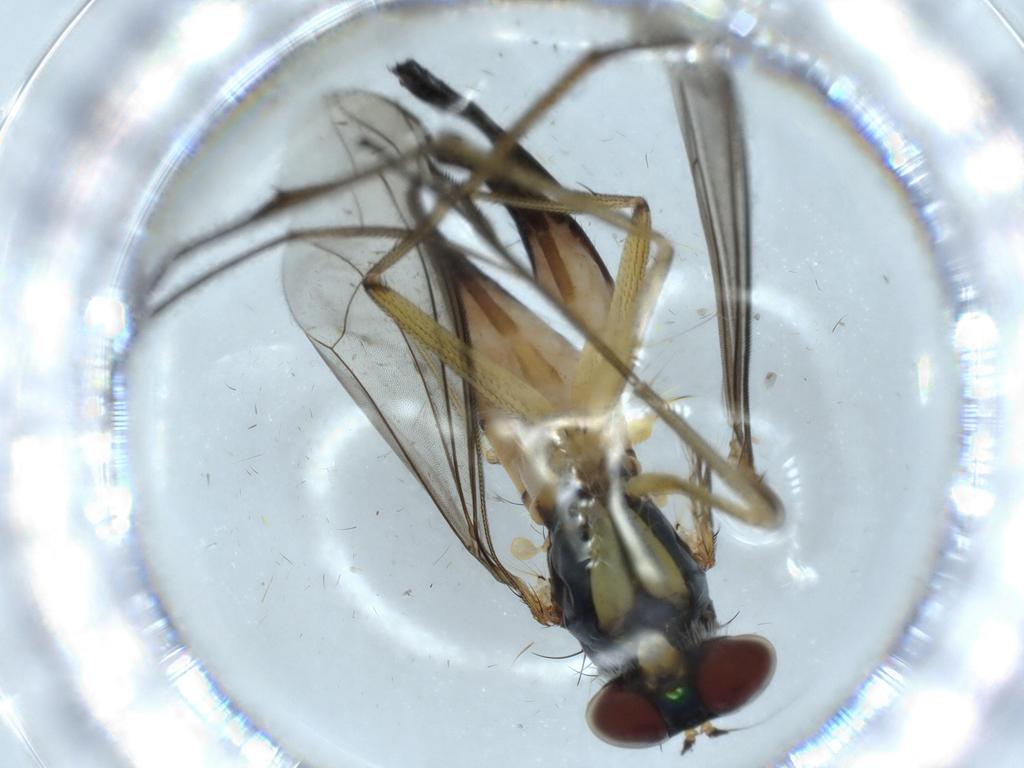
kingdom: Animalia
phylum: Arthropoda
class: Insecta
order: Diptera
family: Dolichopodidae
